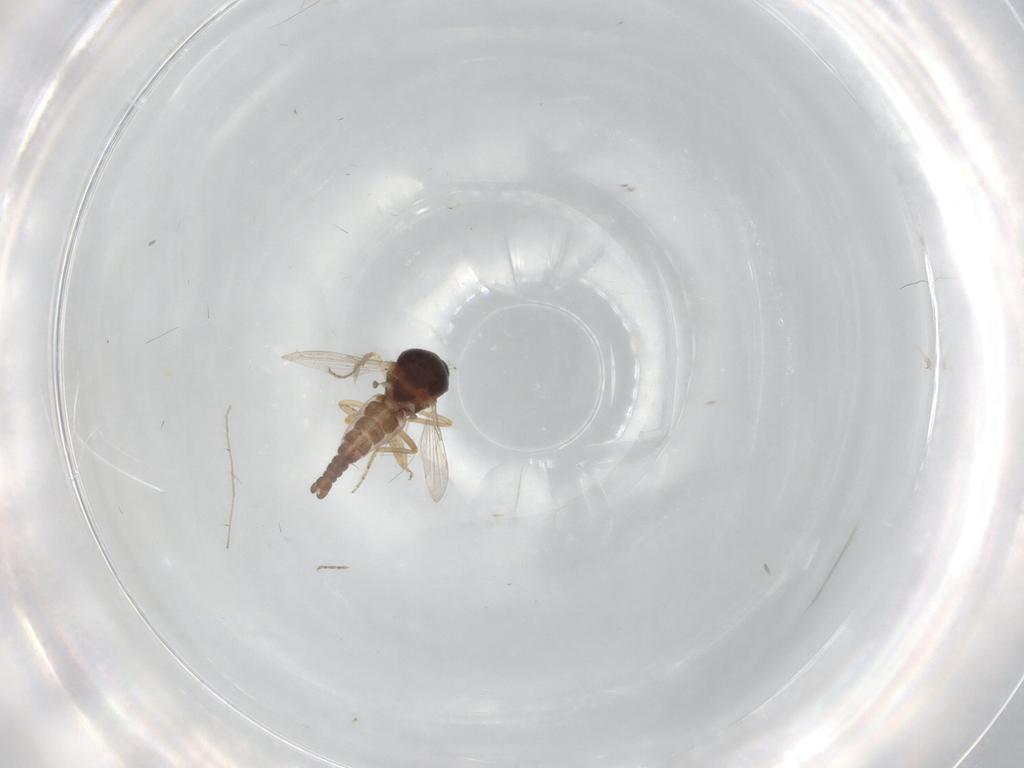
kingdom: Animalia
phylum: Arthropoda
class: Insecta
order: Diptera
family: Ceratopogonidae
